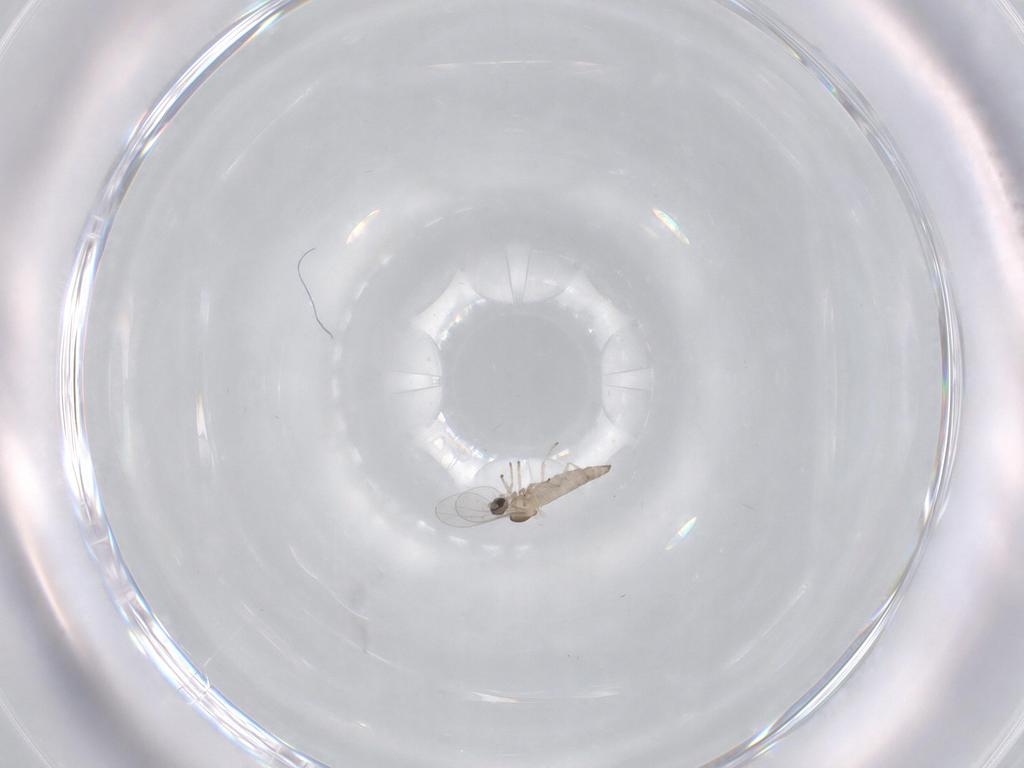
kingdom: Animalia
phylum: Arthropoda
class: Insecta
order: Diptera
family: Cecidomyiidae
